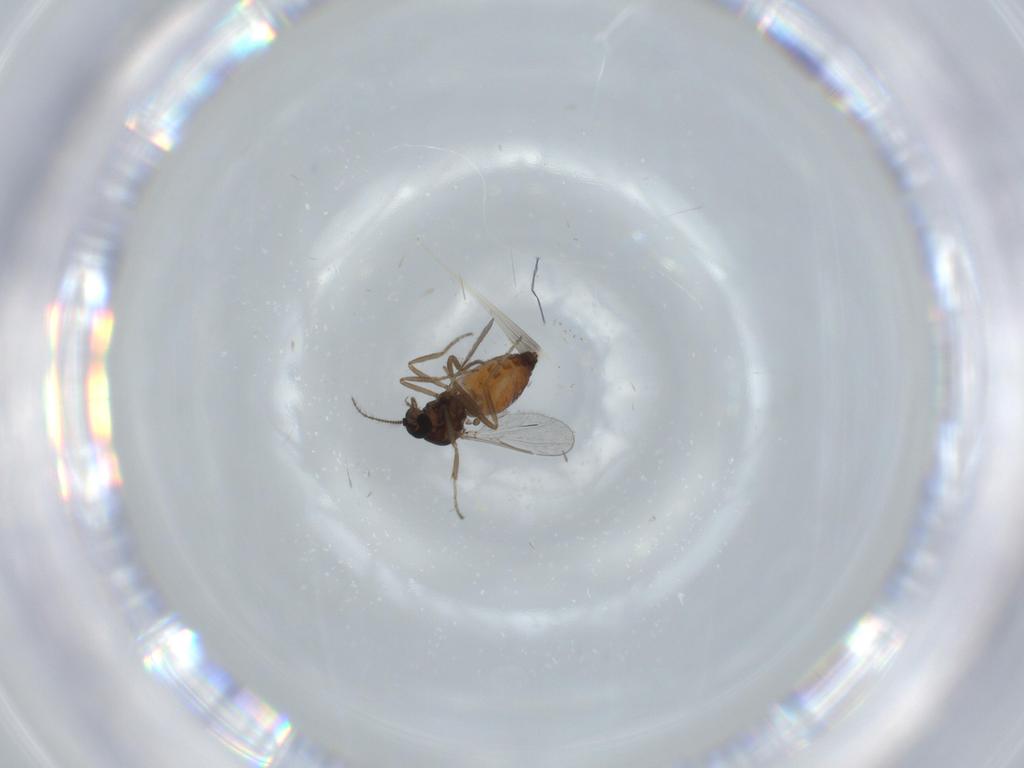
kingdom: Animalia
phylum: Arthropoda
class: Insecta
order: Diptera
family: Ceratopogonidae
